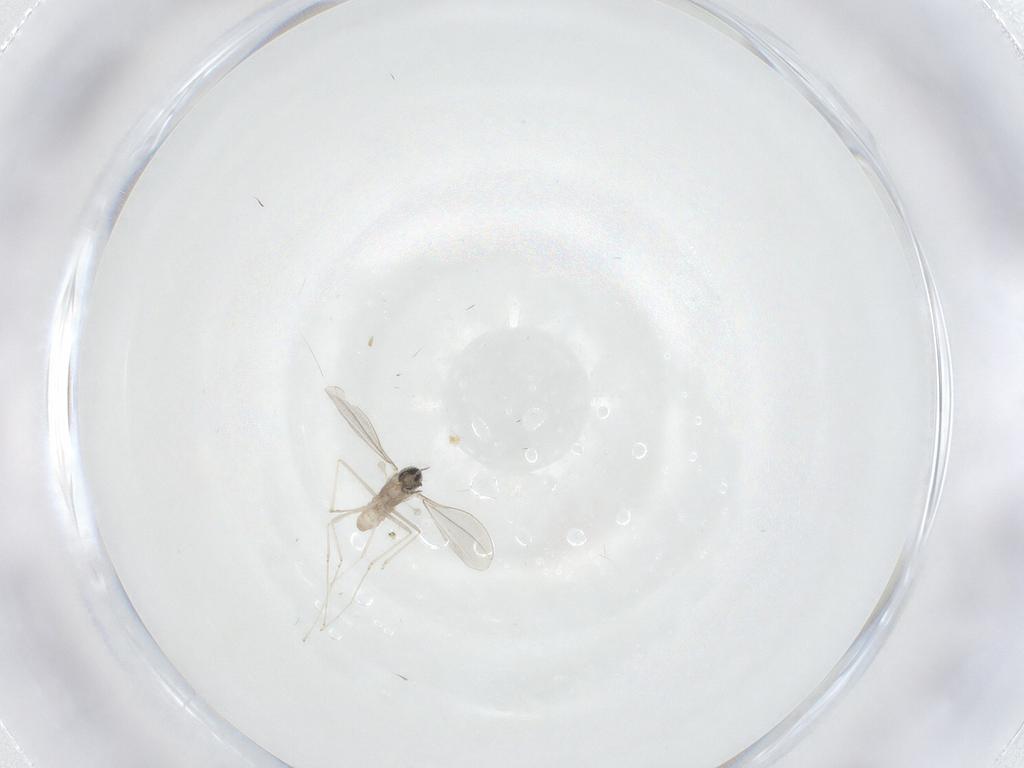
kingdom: Animalia
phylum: Arthropoda
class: Insecta
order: Diptera
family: Cecidomyiidae
